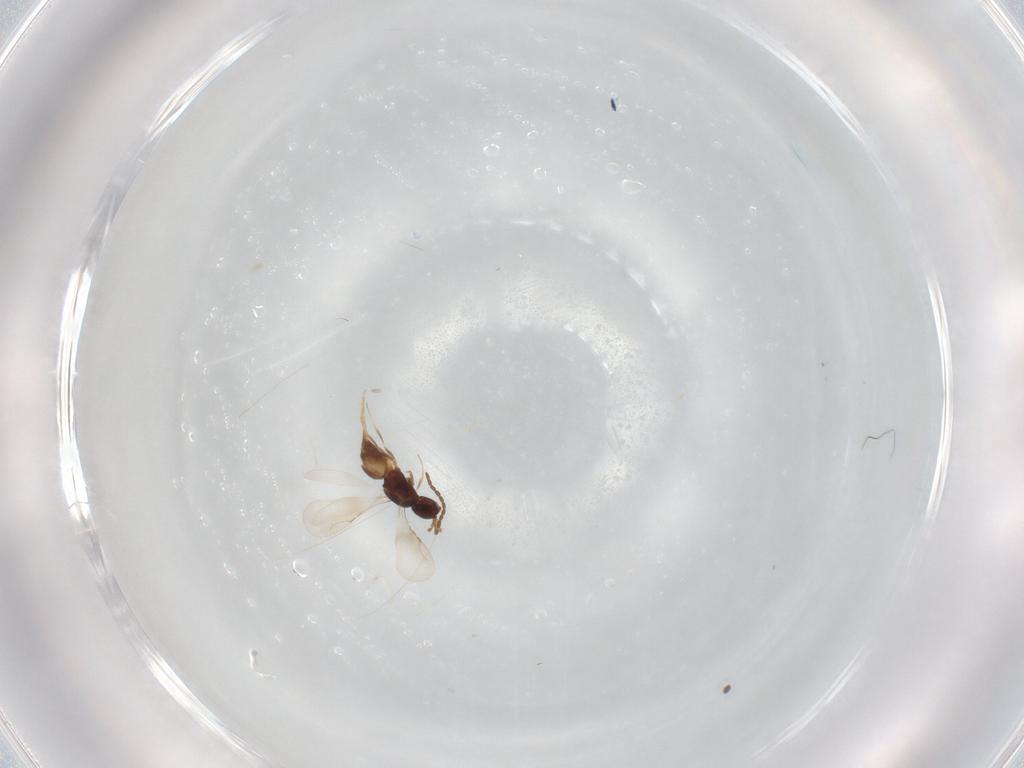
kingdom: Animalia
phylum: Arthropoda
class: Insecta
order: Hymenoptera
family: Ceraphronidae
